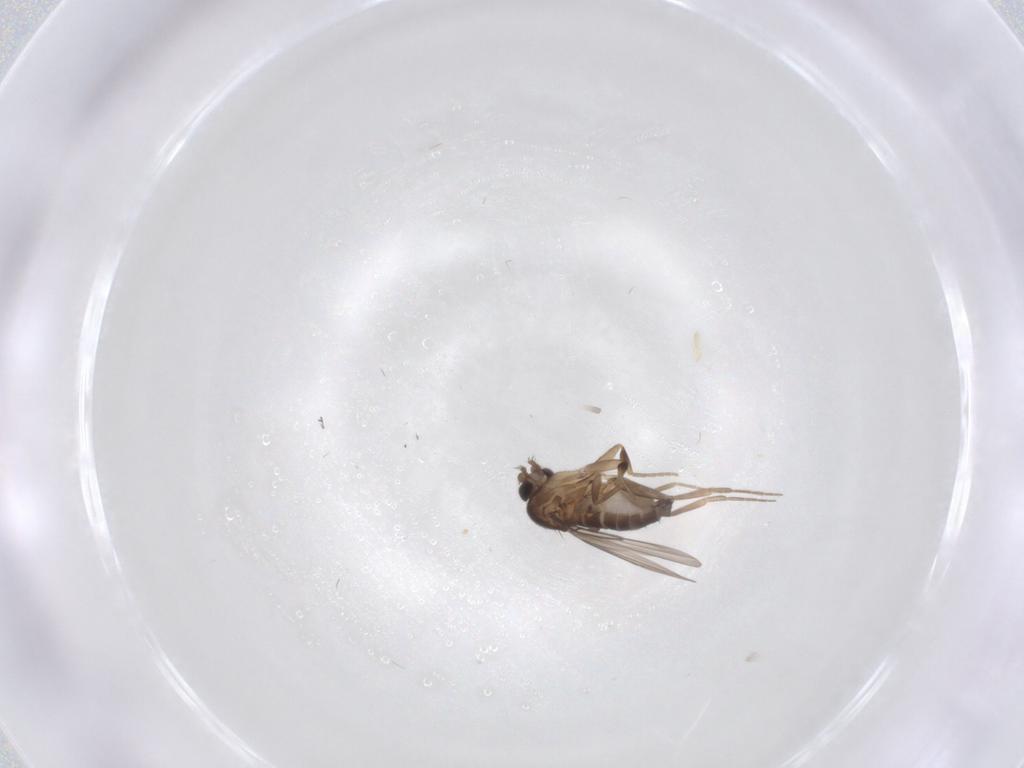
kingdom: Animalia
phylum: Arthropoda
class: Insecta
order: Diptera
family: Phoridae
